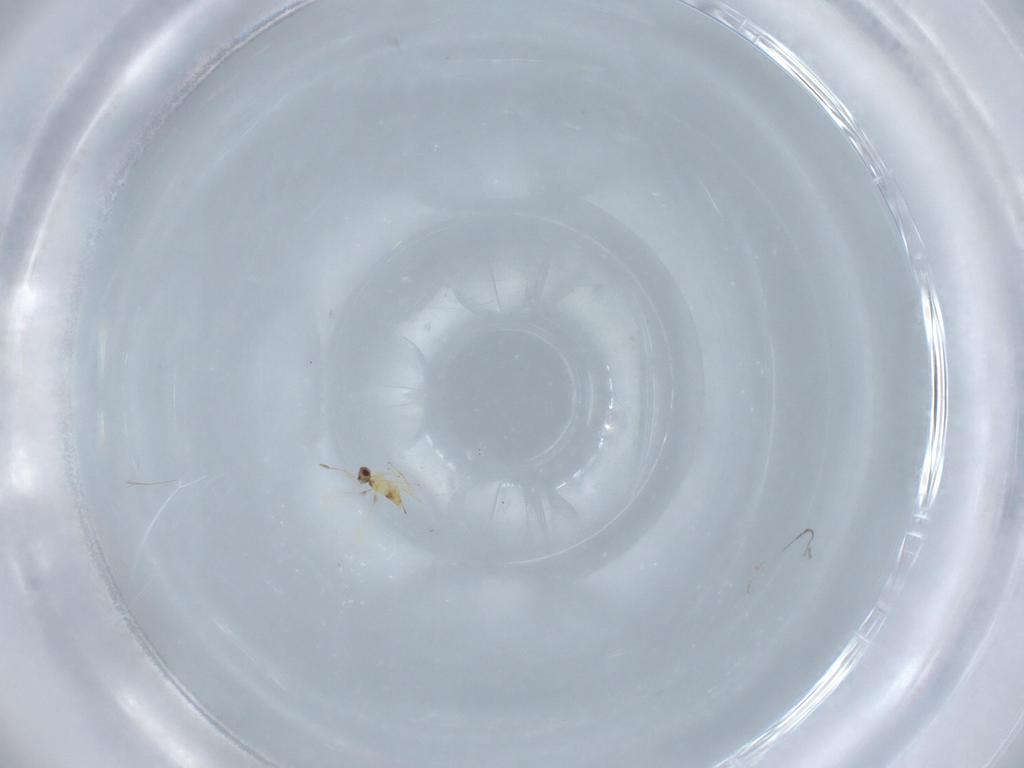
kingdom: Animalia
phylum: Arthropoda
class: Insecta
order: Hymenoptera
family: Mymaridae
